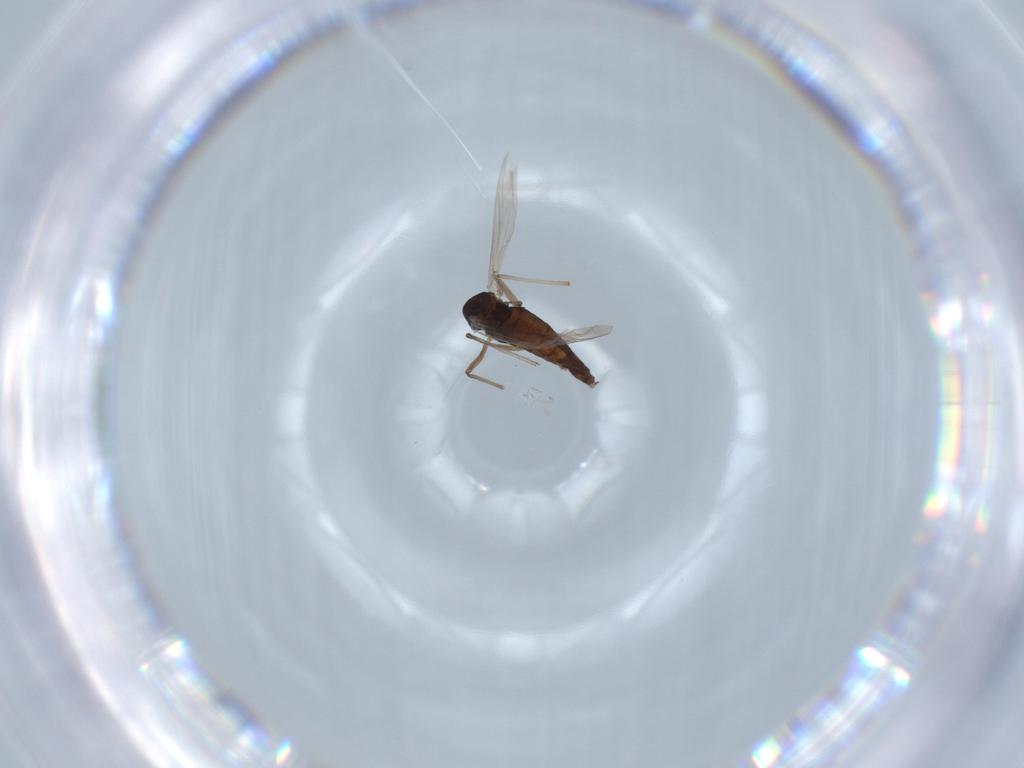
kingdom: Animalia
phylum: Arthropoda
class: Insecta
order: Diptera
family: Chironomidae
